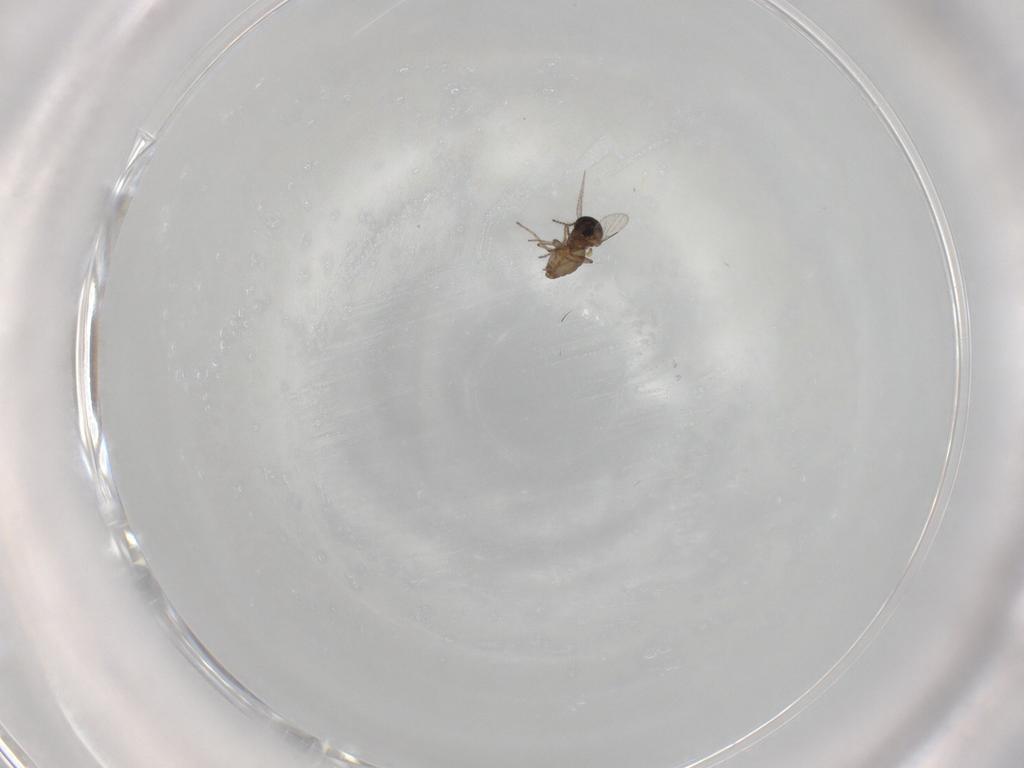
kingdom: Animalia
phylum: Arthropoda
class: Insecta
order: Diptera
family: Ceratopogonidae
